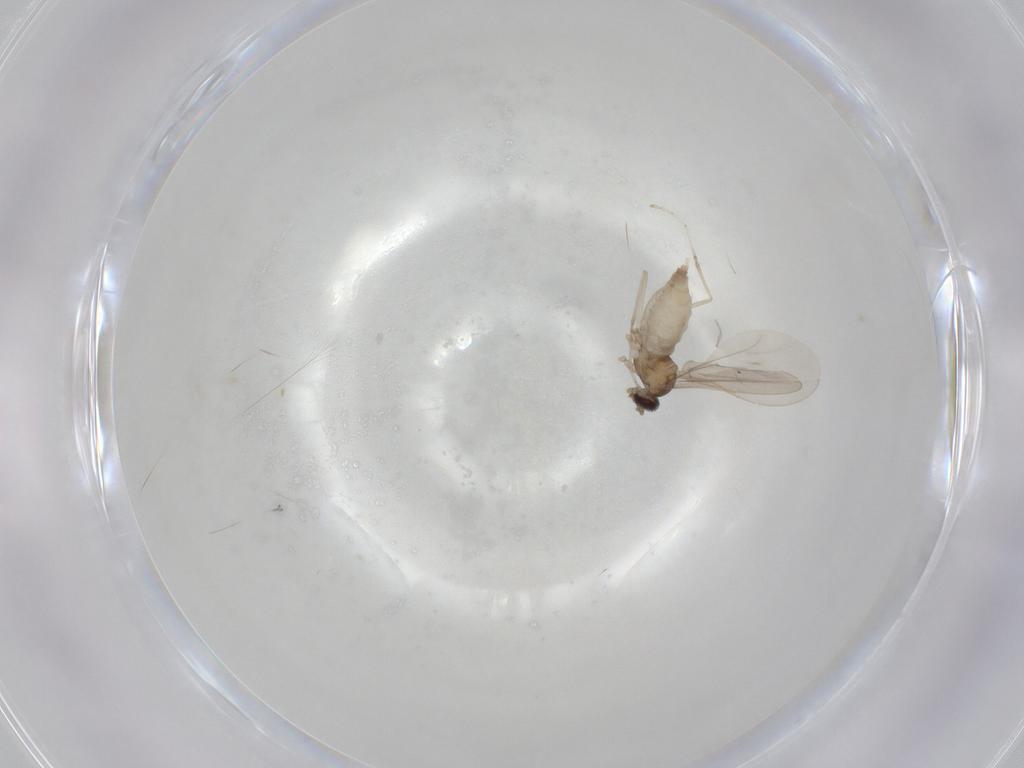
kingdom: Animalia
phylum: Arthropoda
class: Insecta
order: Diptera
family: Cecidomyiidae
